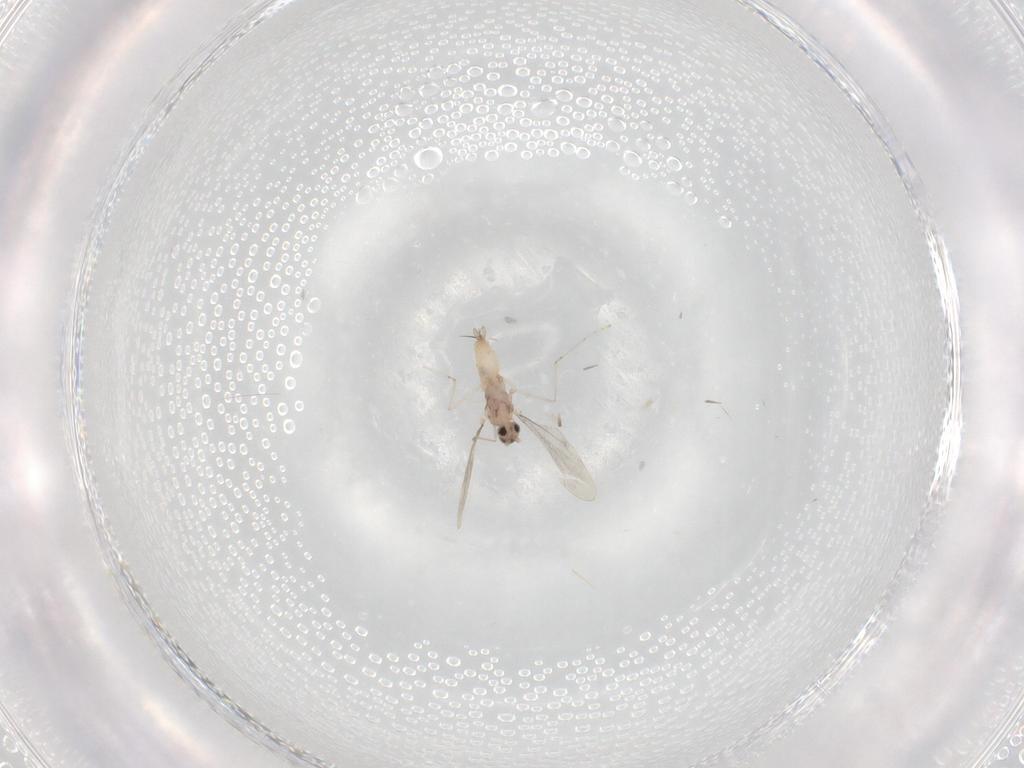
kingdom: Animalia
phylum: Arthropoda
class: Insecta
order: Diptera
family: Cecidomyiidae
